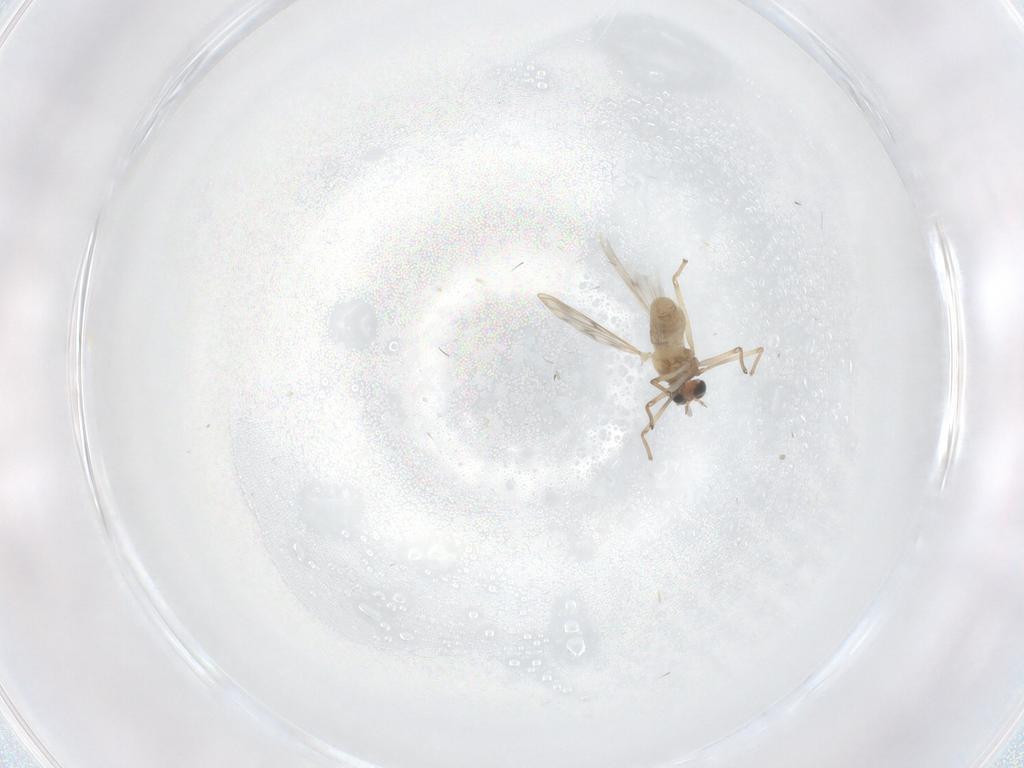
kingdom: Animalia
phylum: Arthropoda
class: Insecta
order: Diptera
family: Chironomidae
